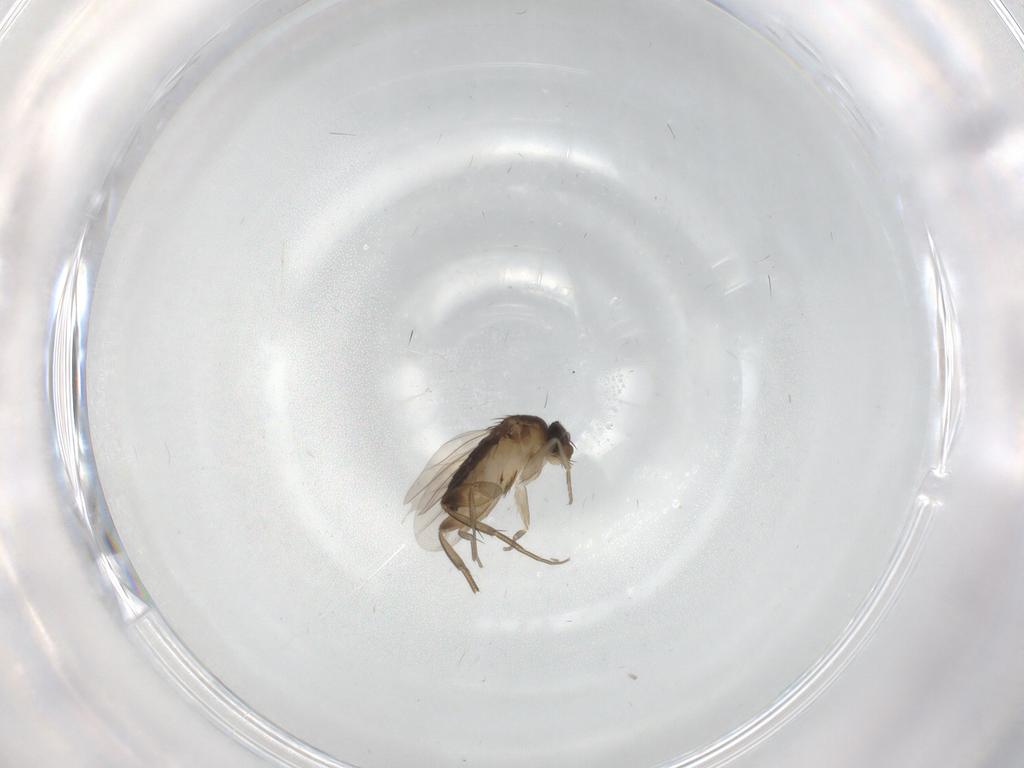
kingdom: Animalia
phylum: Arthropoda
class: Insecta
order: Diptera
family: Phoridae
